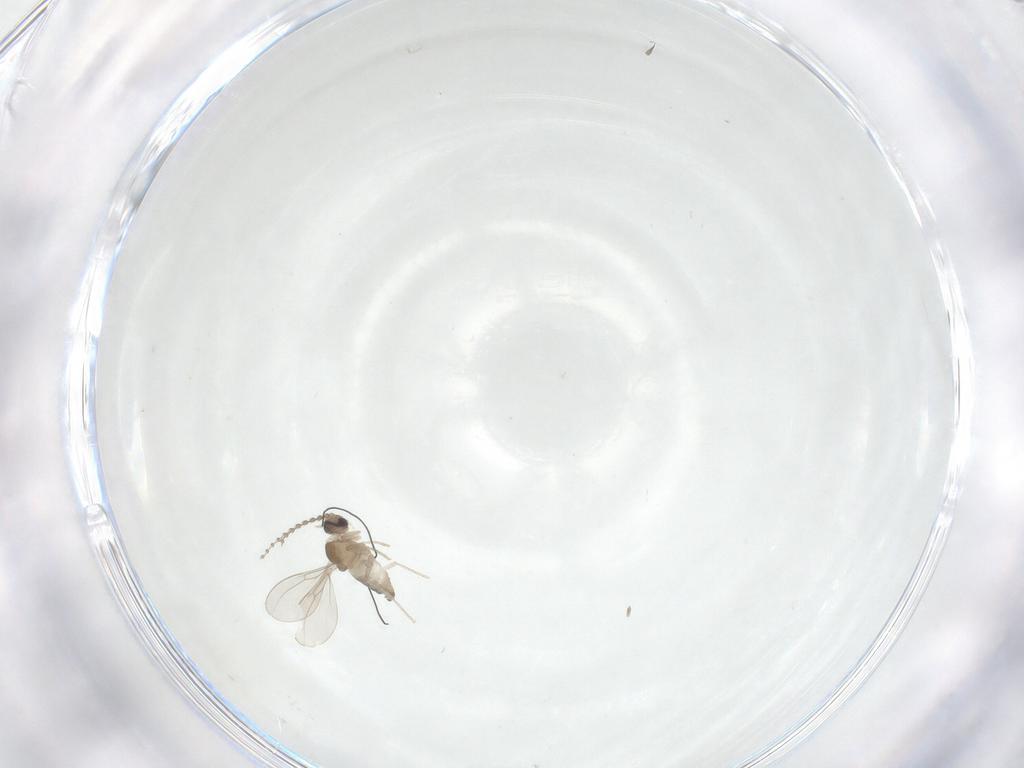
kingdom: Animalia
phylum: Arthropoda
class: Insecta
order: Diptera
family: Cecidomyiidae
